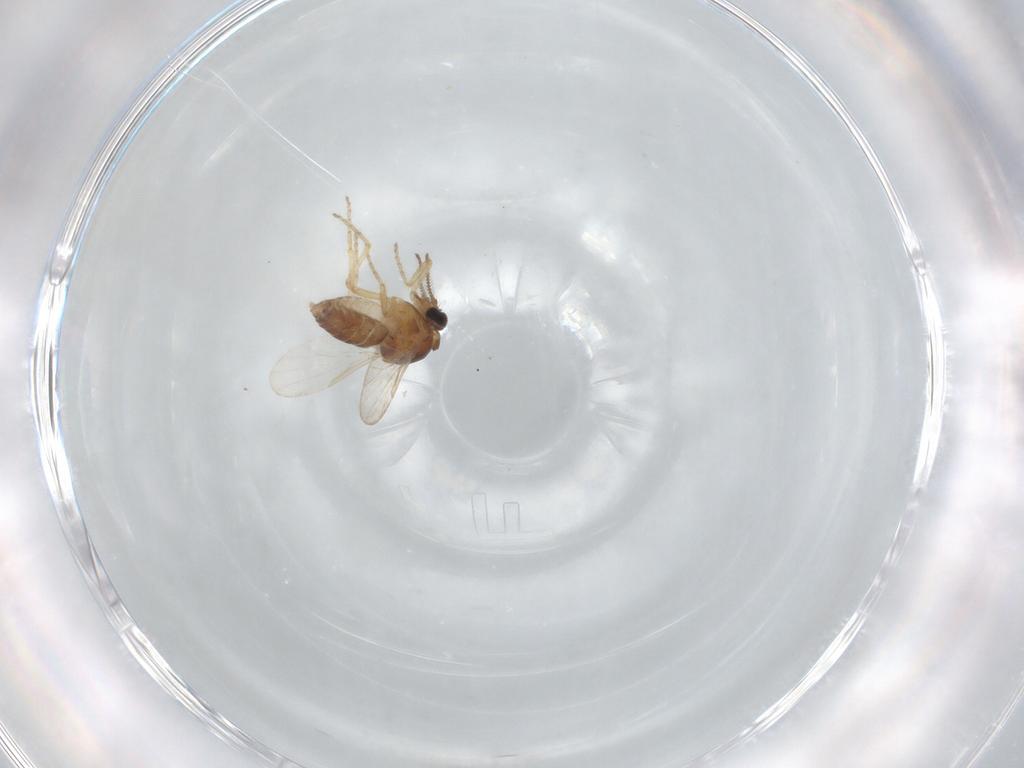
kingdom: Animalia
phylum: Arthropoda
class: Insecta
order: Diptera
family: Ceratopogonidae
